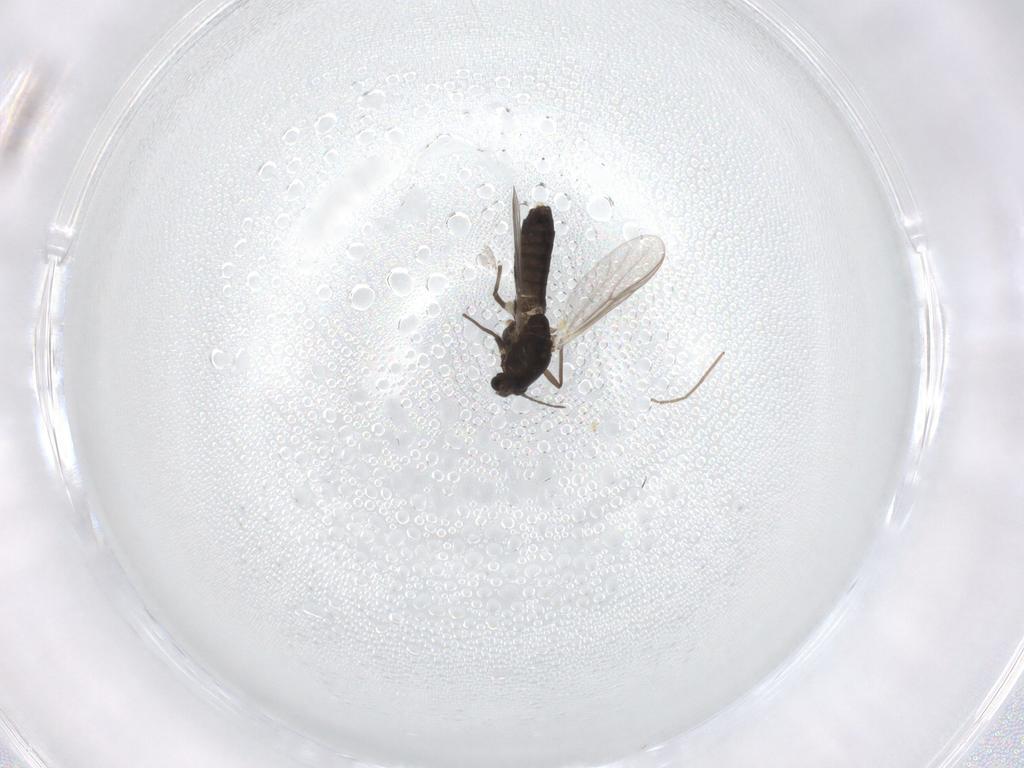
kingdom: Animalia
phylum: Arthropoda
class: Insecta
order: Diptera
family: Chironomidae
